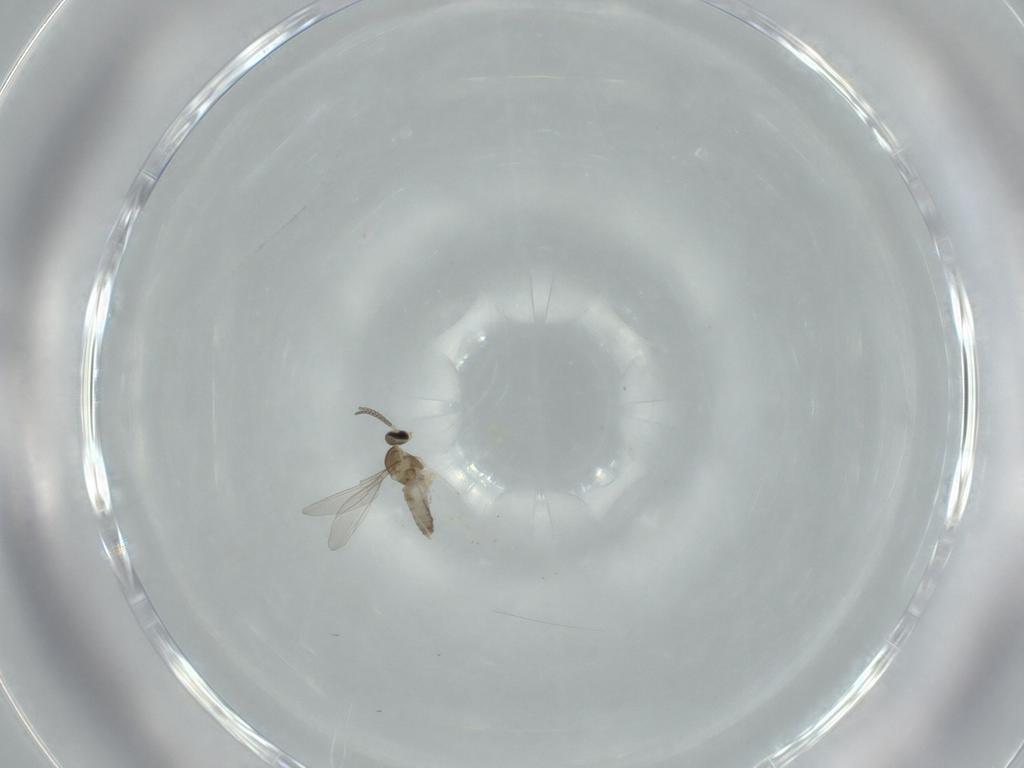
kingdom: Animalia
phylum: Arthropoda
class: Insecta
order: Diptera
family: Cecidomyiidae
